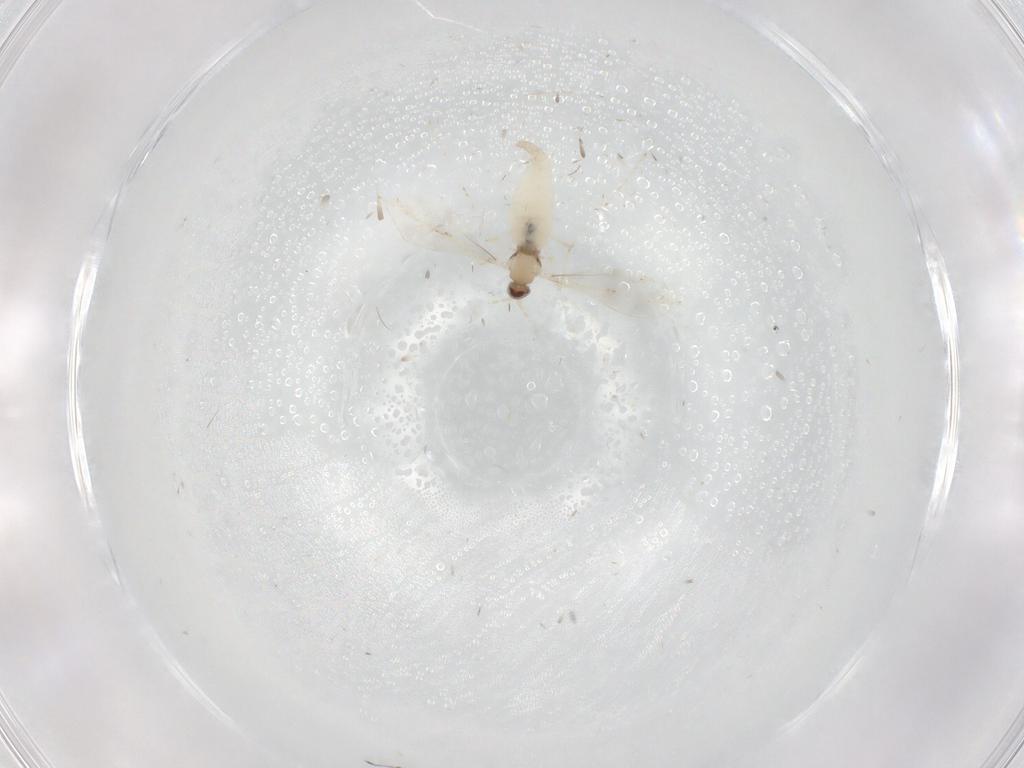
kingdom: Animalia
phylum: Arthropoda
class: Insecta
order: Diptera
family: Cecidomyiidae
